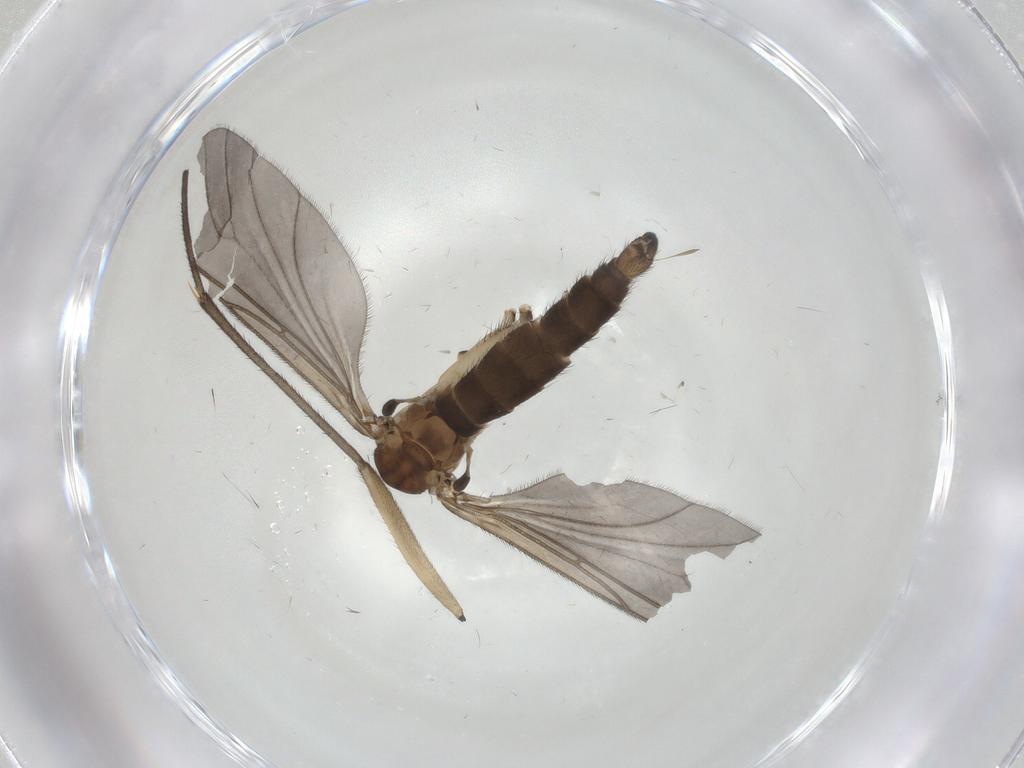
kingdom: Animalia
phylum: Arthropoda
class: Insecta
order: Diptera
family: Sciaridae
